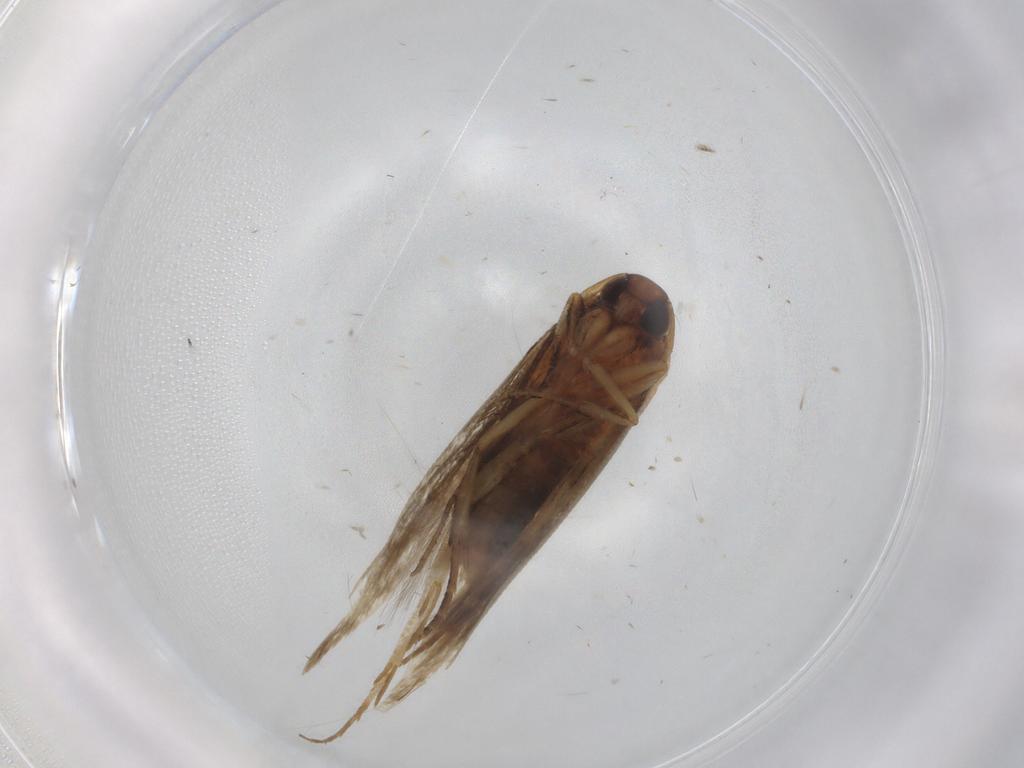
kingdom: Animalia
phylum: Arthropoda
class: Insecta
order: Lepidoptera
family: Cosmopterigidae
